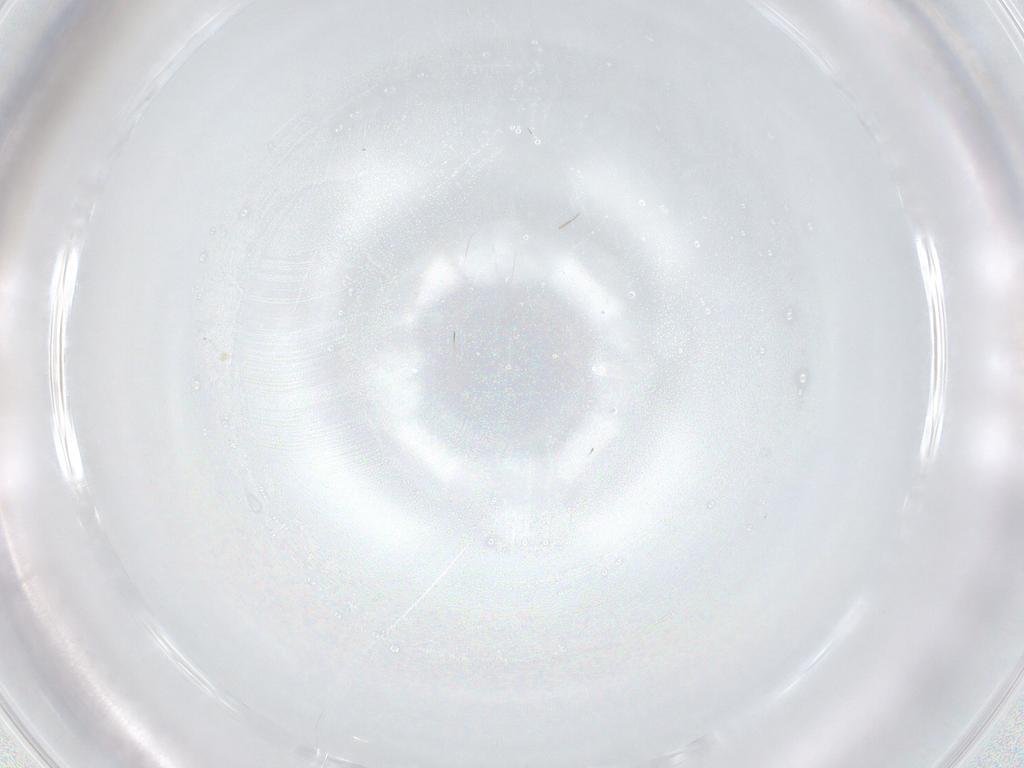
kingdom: Animalia
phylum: Arthropoda
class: Insecta
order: Diptera
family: Cecidomyiidae
